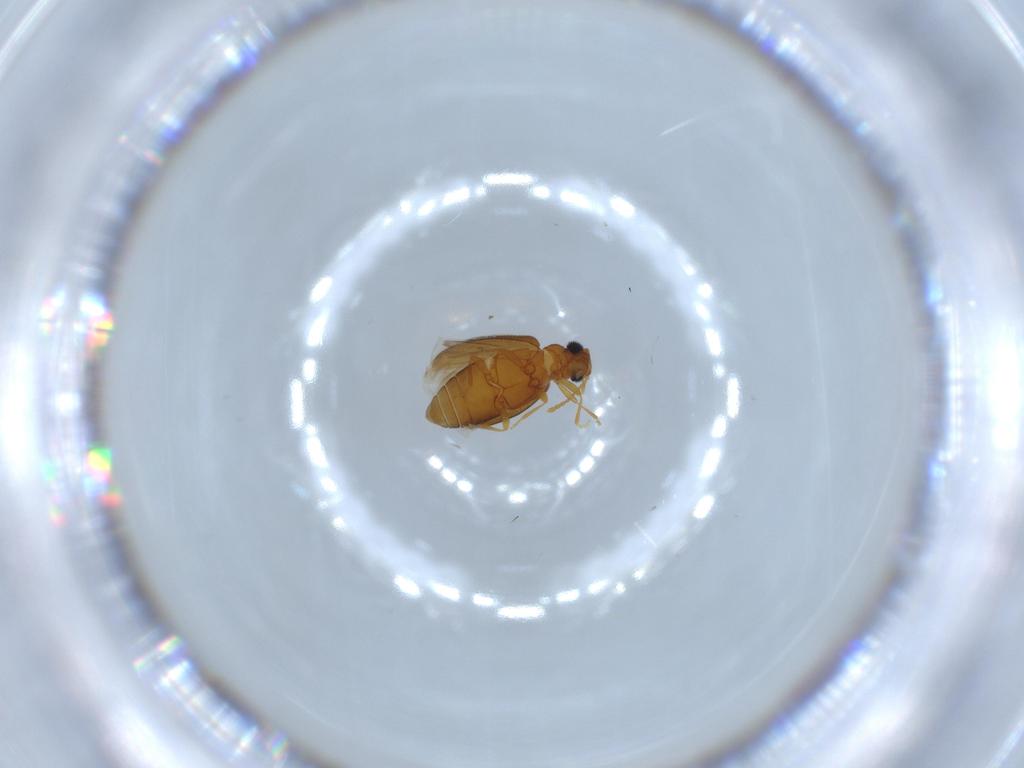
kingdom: Animalia
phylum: Arthropoda
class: Insecta
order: Coleoptera
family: Aderidae
